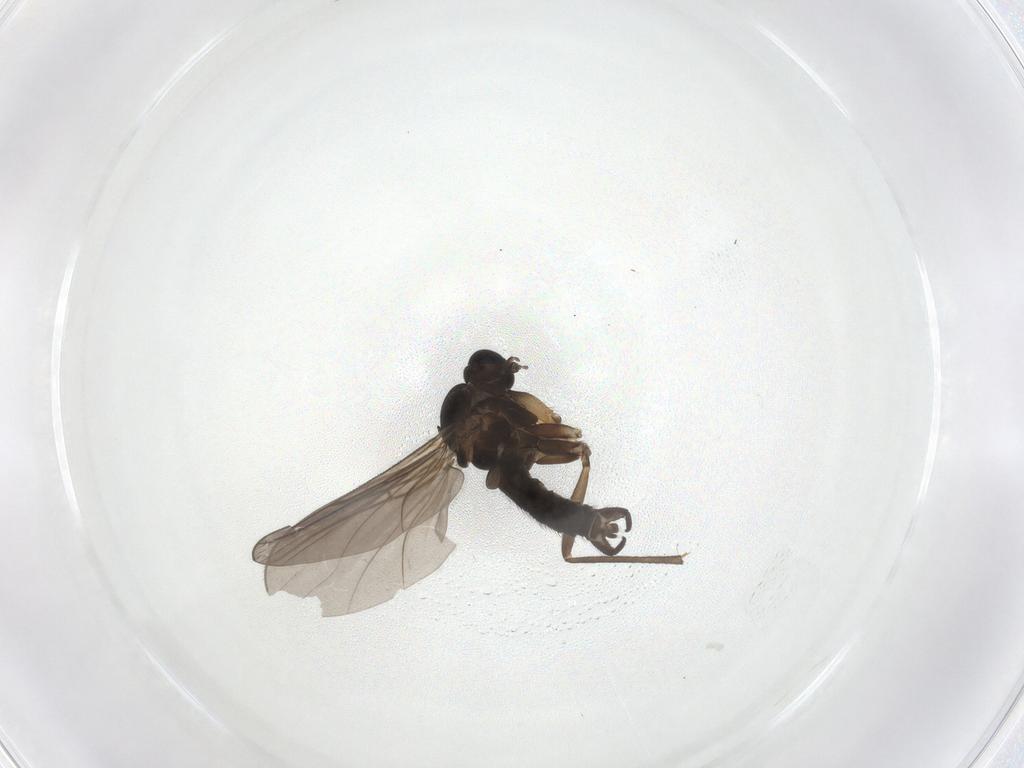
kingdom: Animalia
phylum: Arthropoda
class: Insecta
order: Diptera
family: Sciaridae
